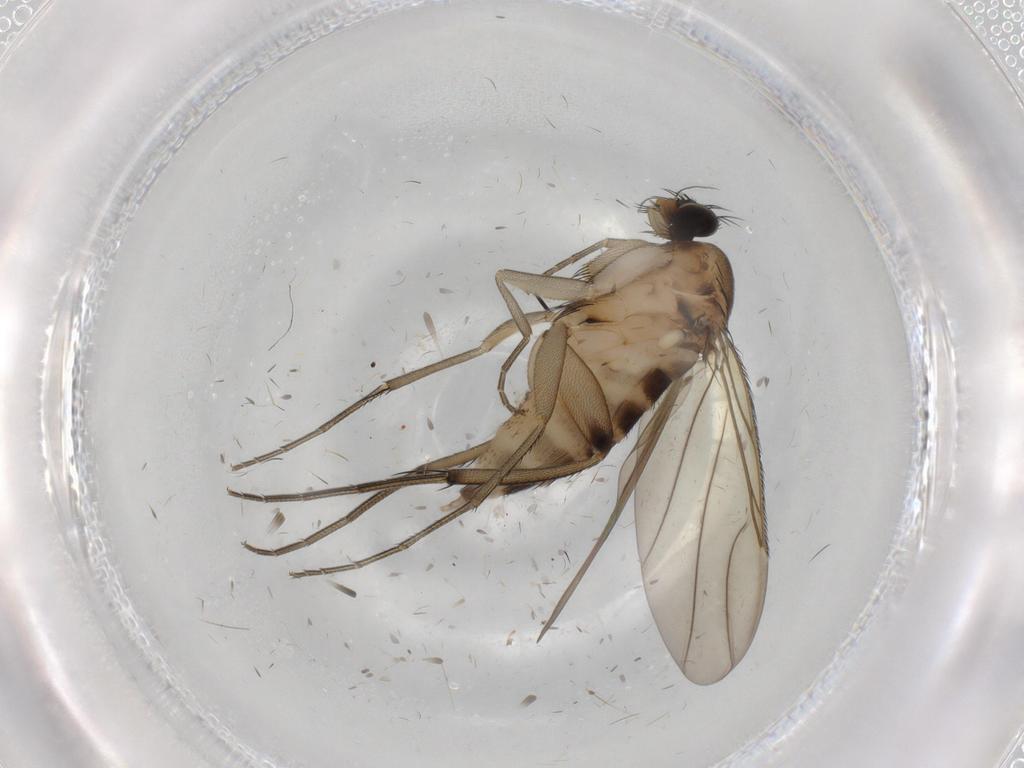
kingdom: Animalia
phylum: Arthropoda
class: Insecta
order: Diptera
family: Phoridae
